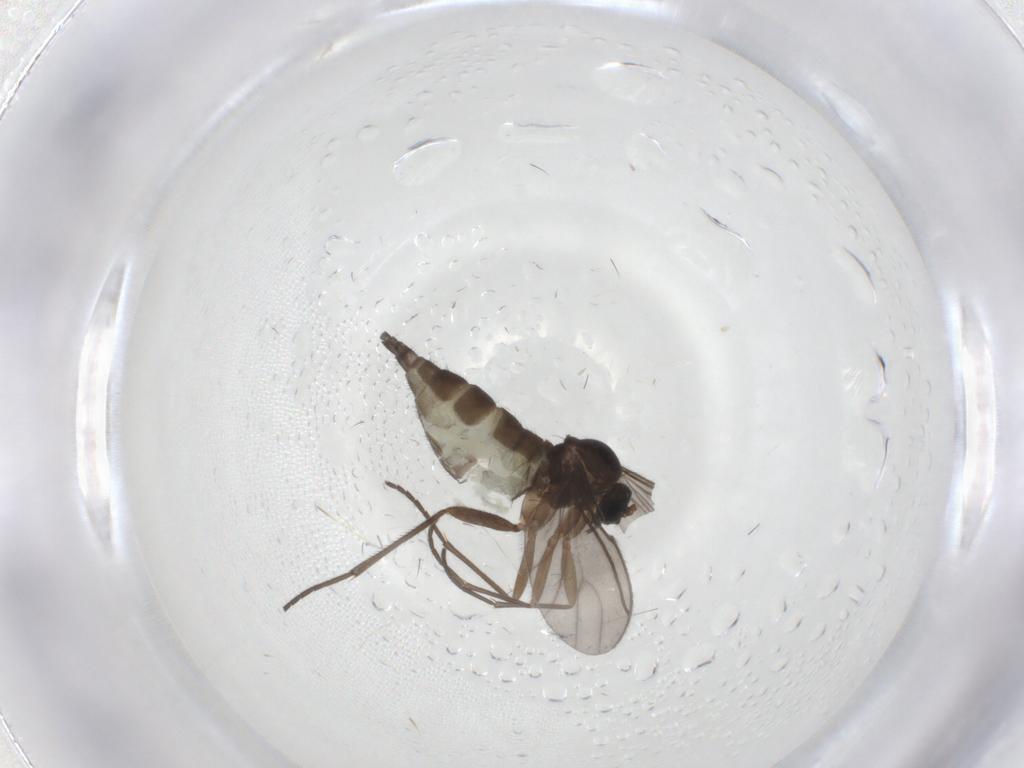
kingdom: Animalia
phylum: Arthropoda
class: Insecta
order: Diptera
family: Sciaridae
